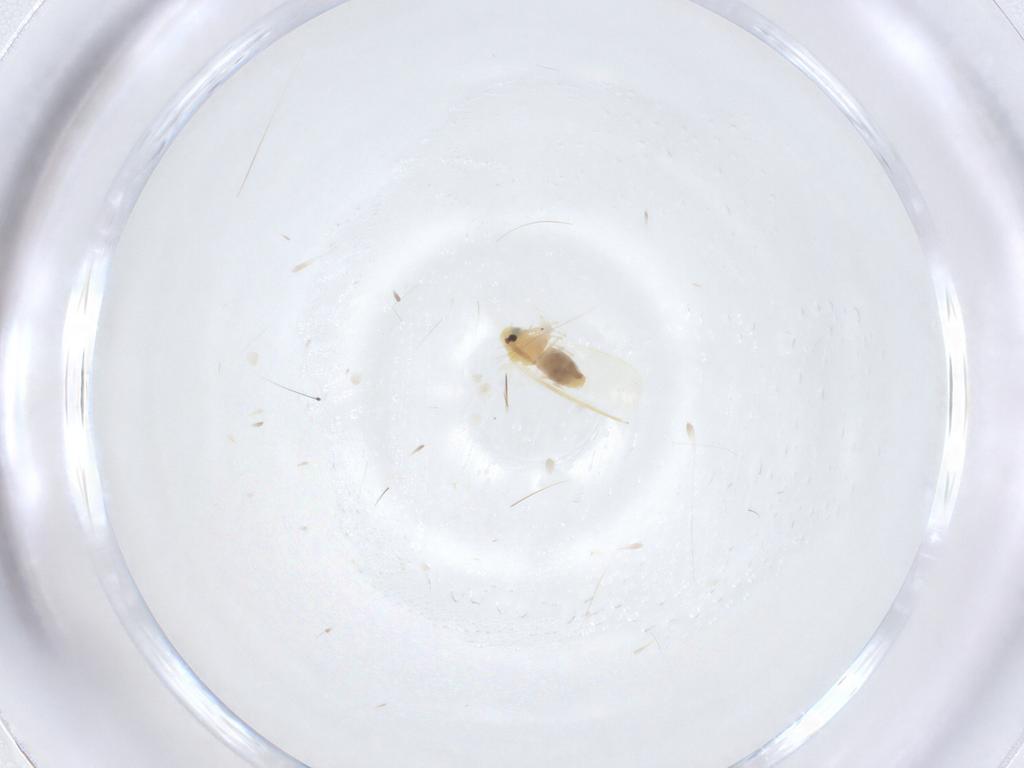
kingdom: Animalia
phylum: Arthropoda
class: Insecta
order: Hemiptera
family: Kinnaridae
